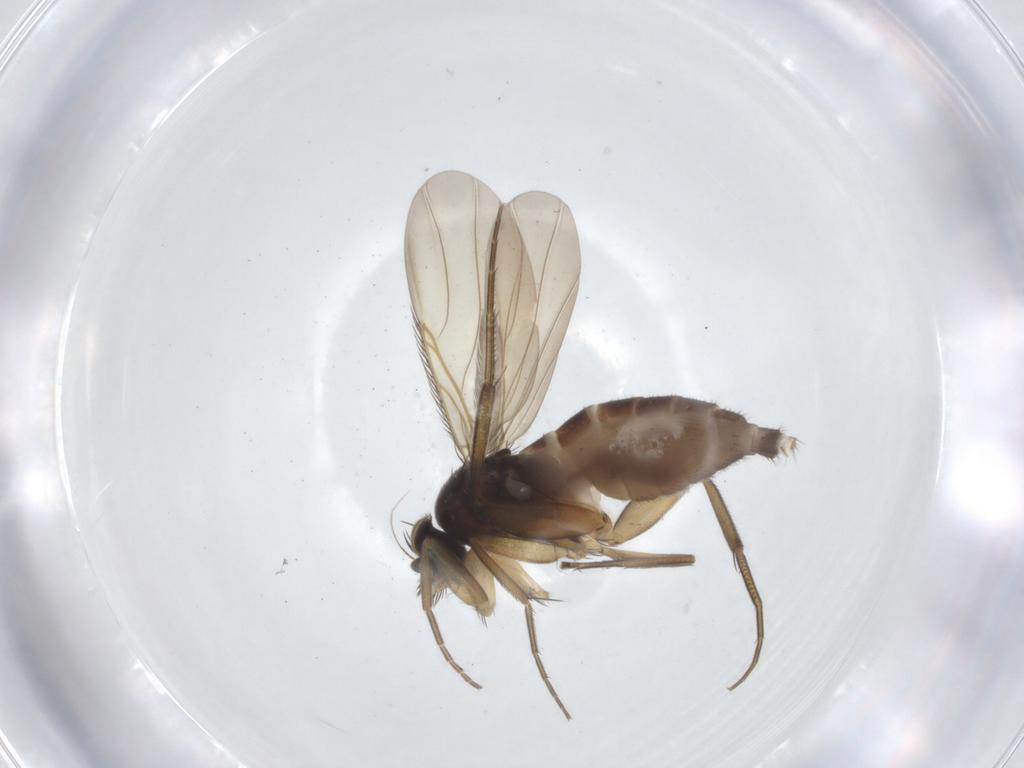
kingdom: Animalia
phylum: Arthropoda
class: Insecta
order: Diptera
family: Phoridae
